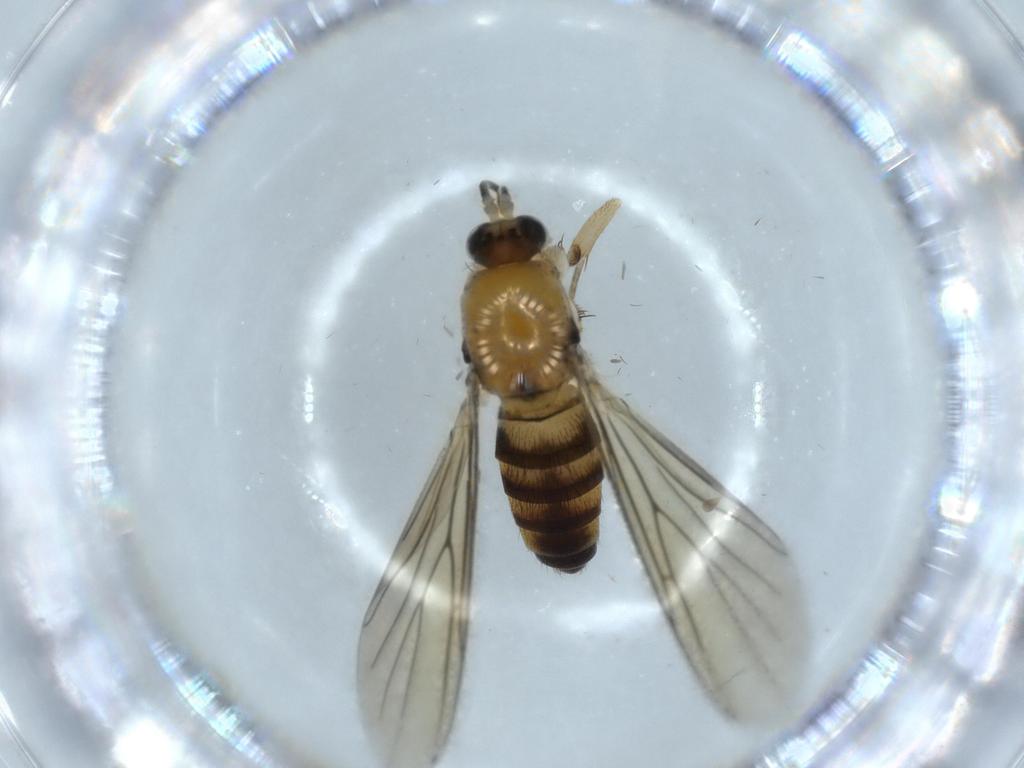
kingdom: Animalia
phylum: Arthropoda
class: Insecta
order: Diptera
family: Mycetophilidae
